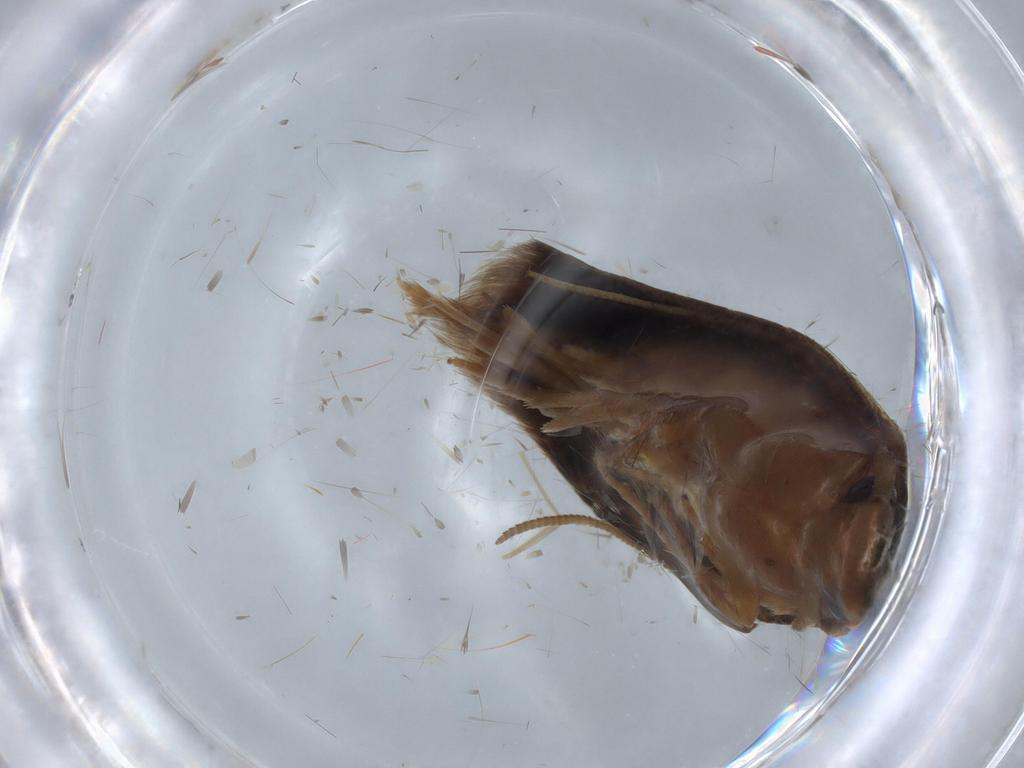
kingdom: Animalia
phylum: Arthropoda
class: Insecta
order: Lepidoptera
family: Tineidae
